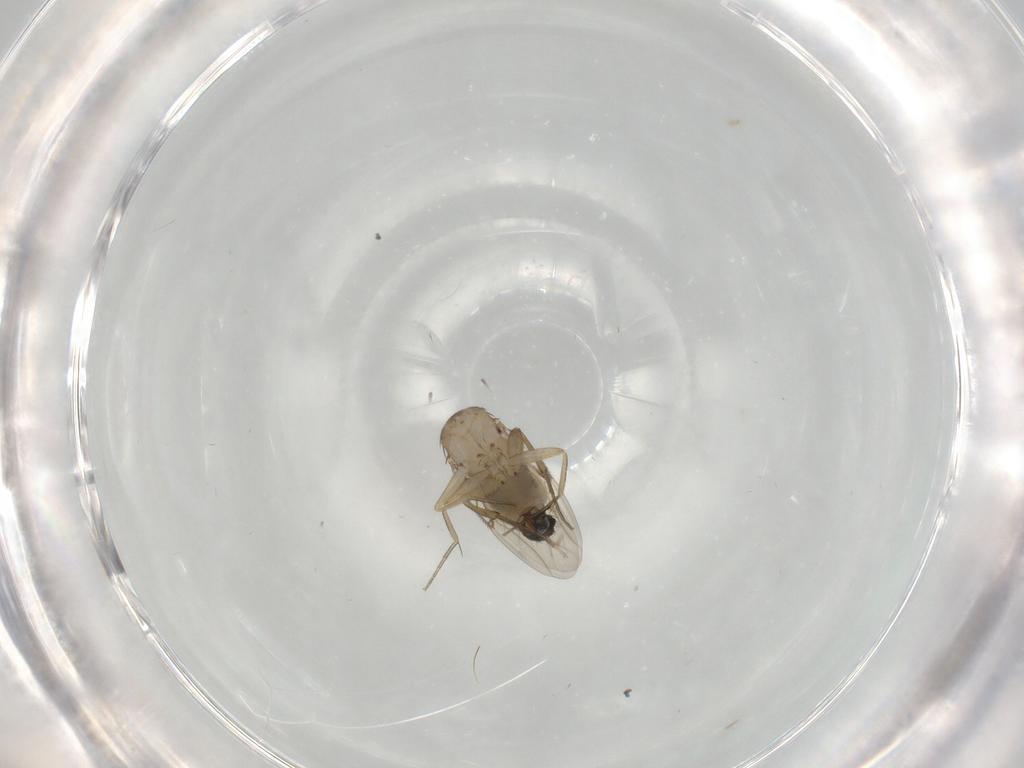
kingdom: Animalia
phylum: Arthropoda
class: Insecta
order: Diptera
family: Phoridae
